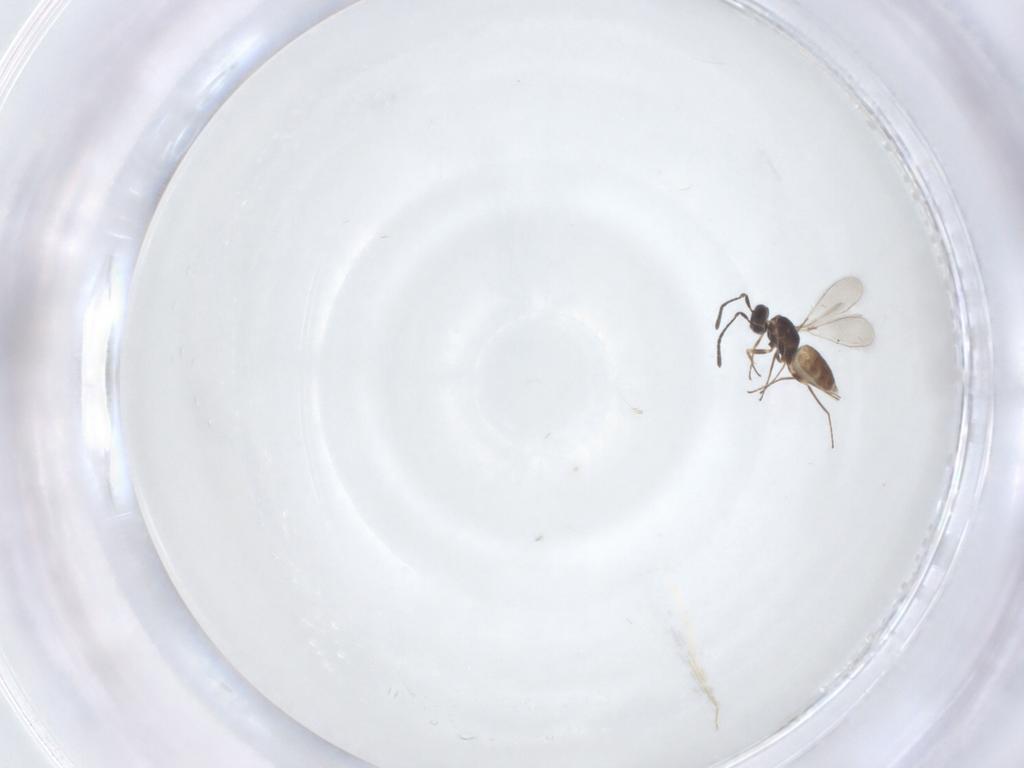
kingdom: Animalia
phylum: Arthropoda
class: Insecta
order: Hymenoptera
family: Mymaridae
